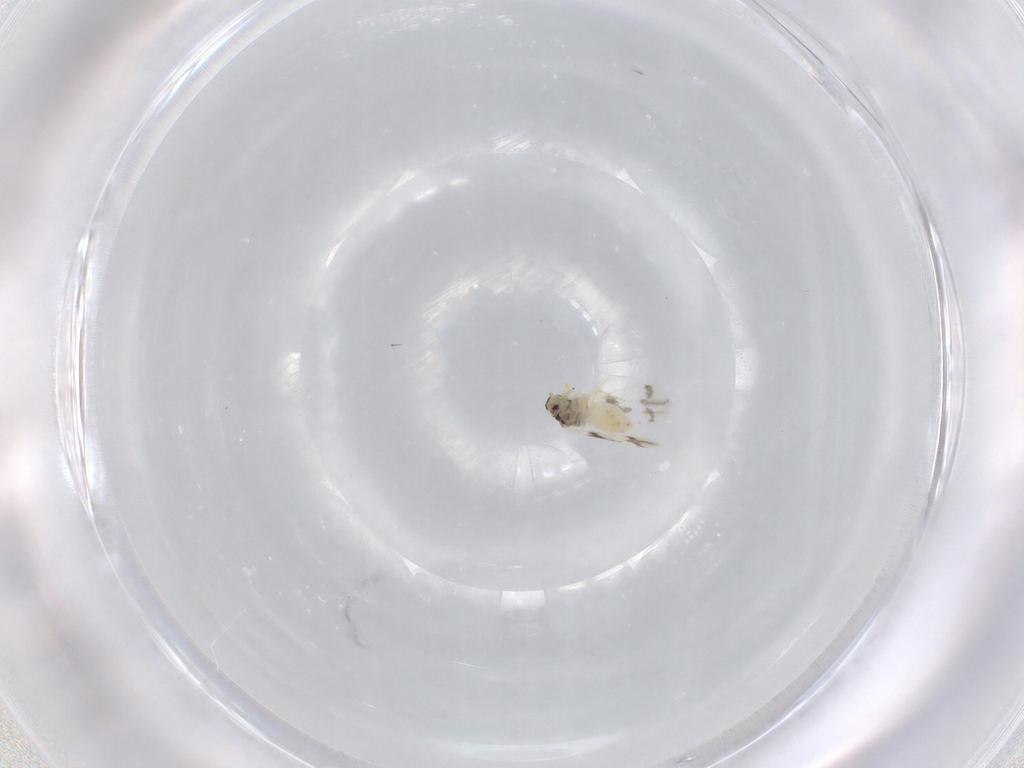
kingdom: Animalia
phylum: Arthropoda
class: Insecta
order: Hemiptera
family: Aleyrodidae
